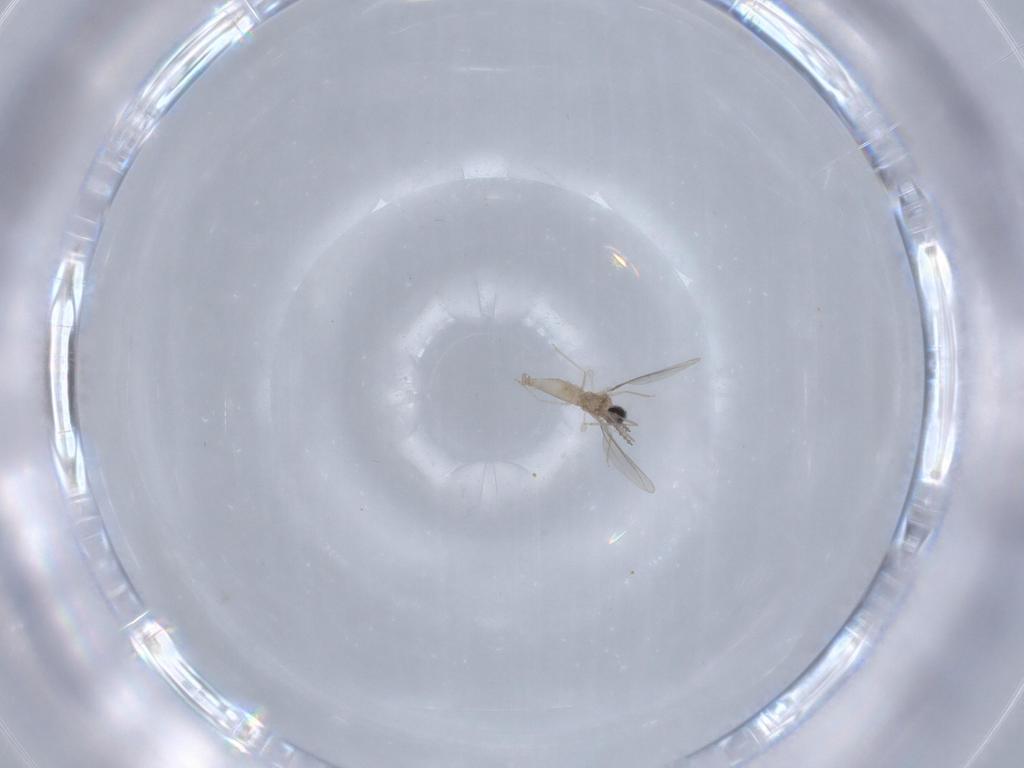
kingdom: Animalia
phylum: Arthropoda
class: Insecta
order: Diptera
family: Cecidomyiidae
